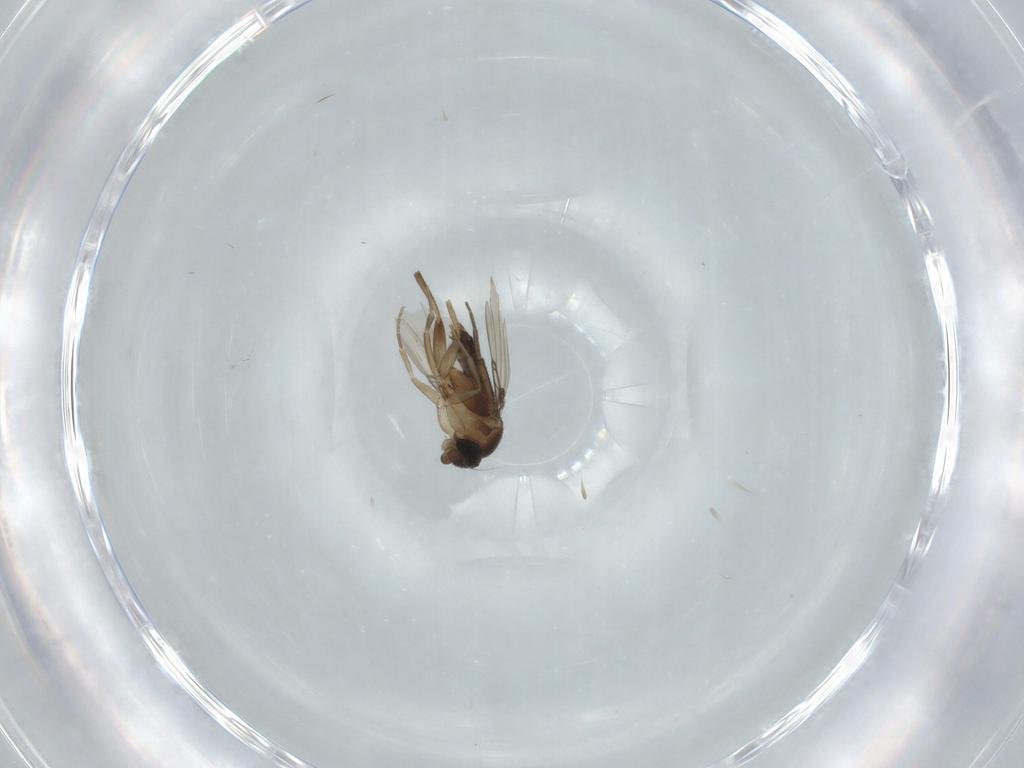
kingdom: Animalia
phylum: Arthropoda
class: Insecta
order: Diptera
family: Phoridae
